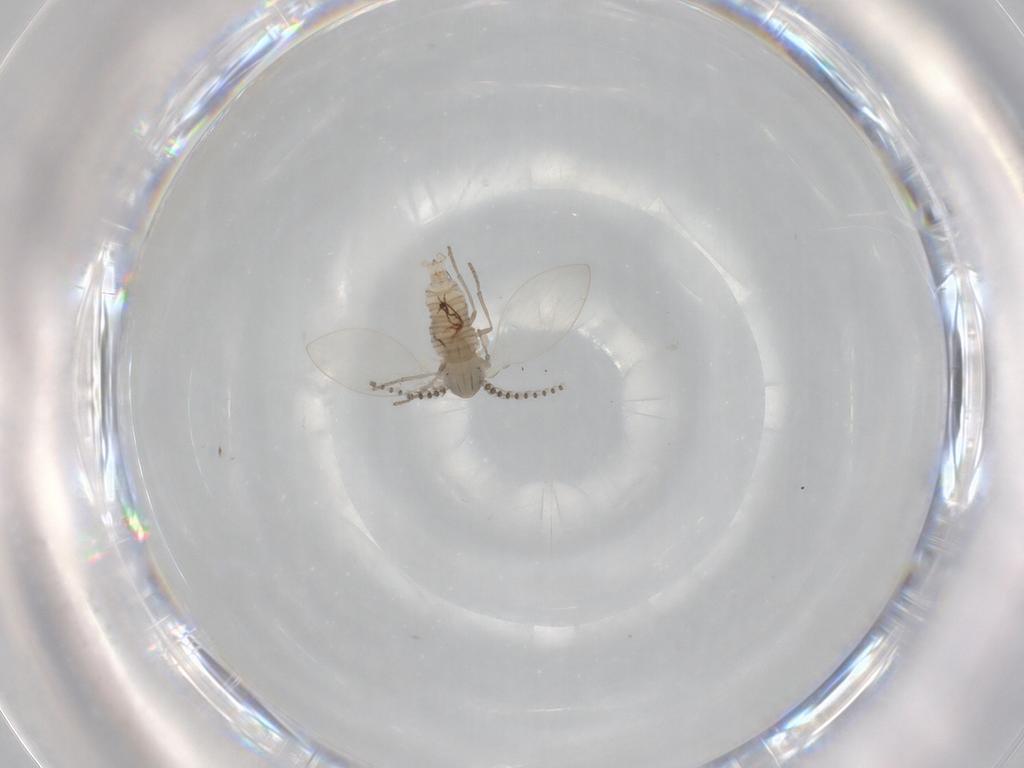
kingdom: Animalia
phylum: Arthropoda
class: Insecta
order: Diptera
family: Psychodidae
